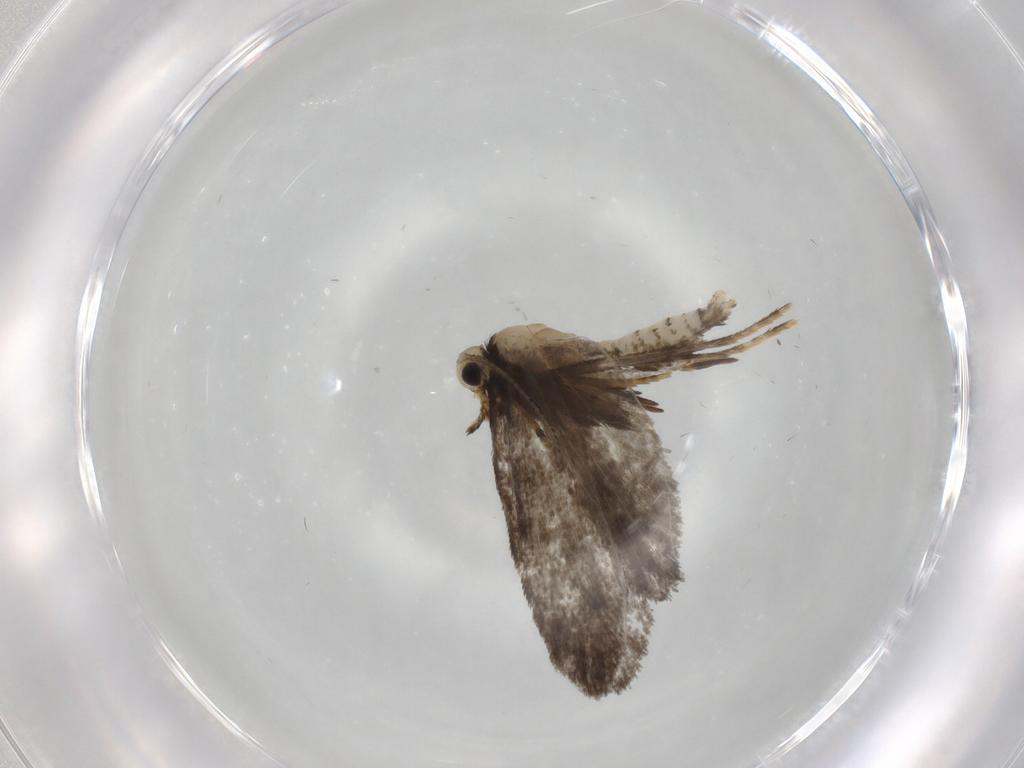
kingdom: Animalia
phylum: Arthropoda
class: Insecta
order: Lepidoptera
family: Psychidae
